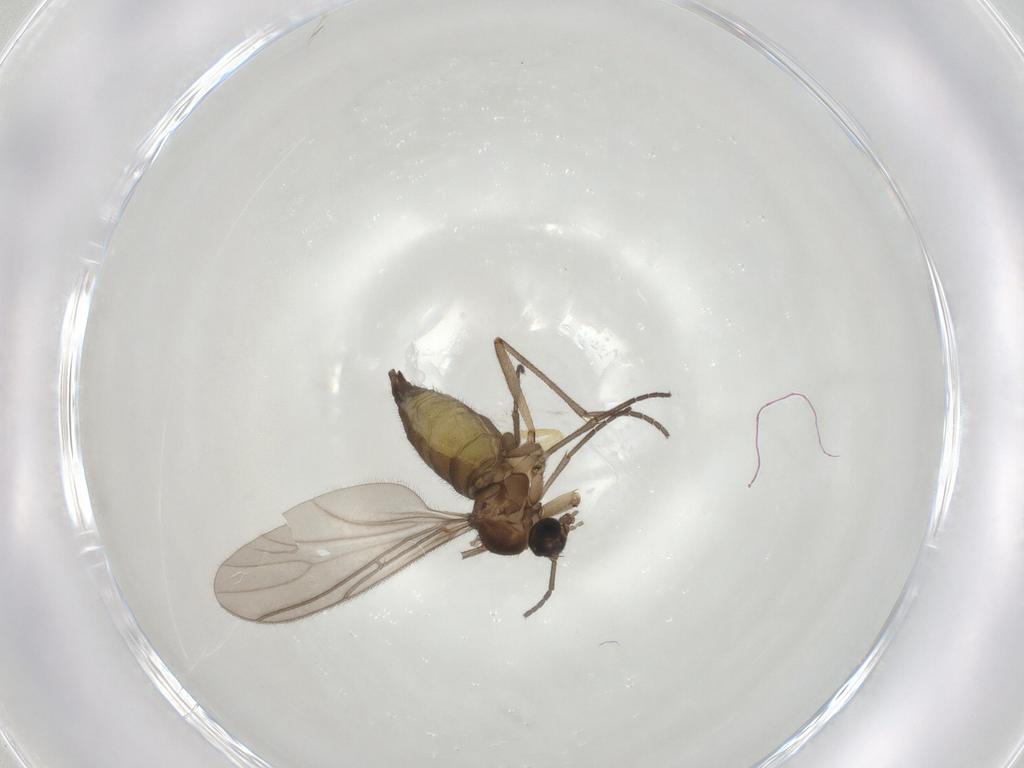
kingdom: Animalia
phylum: Arthropoda
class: Insecta
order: Diptera
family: Sciaridae
